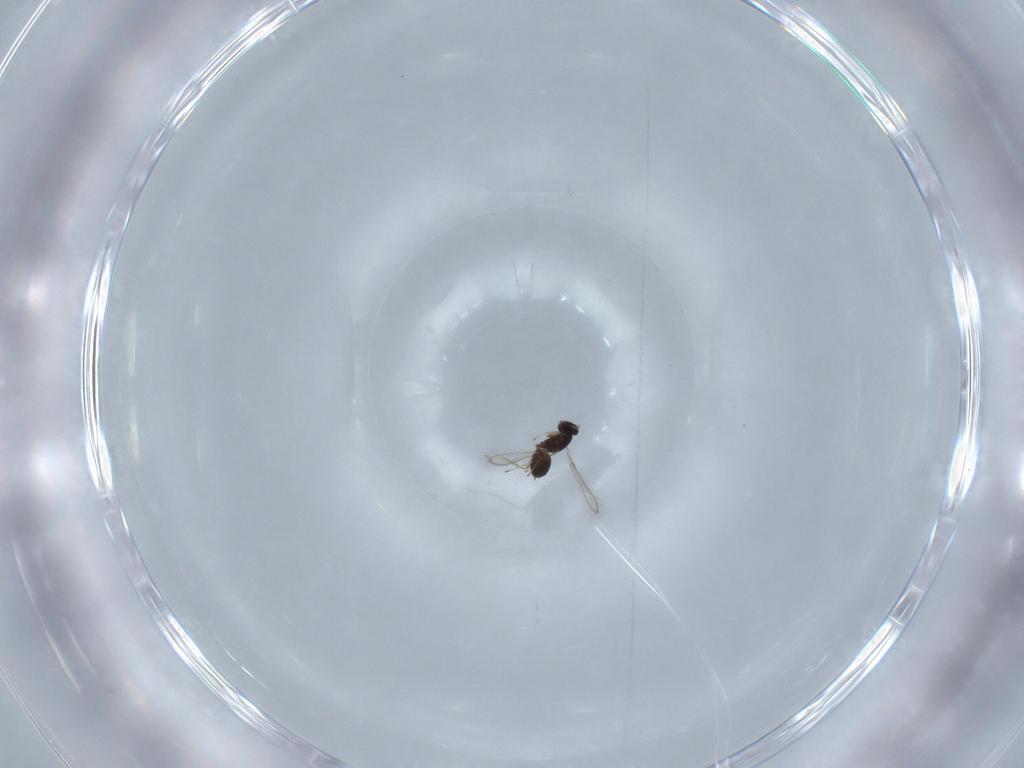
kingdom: Animalia
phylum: Arthropoda
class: Insecta
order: Hymenoptera
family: Mymaridae
